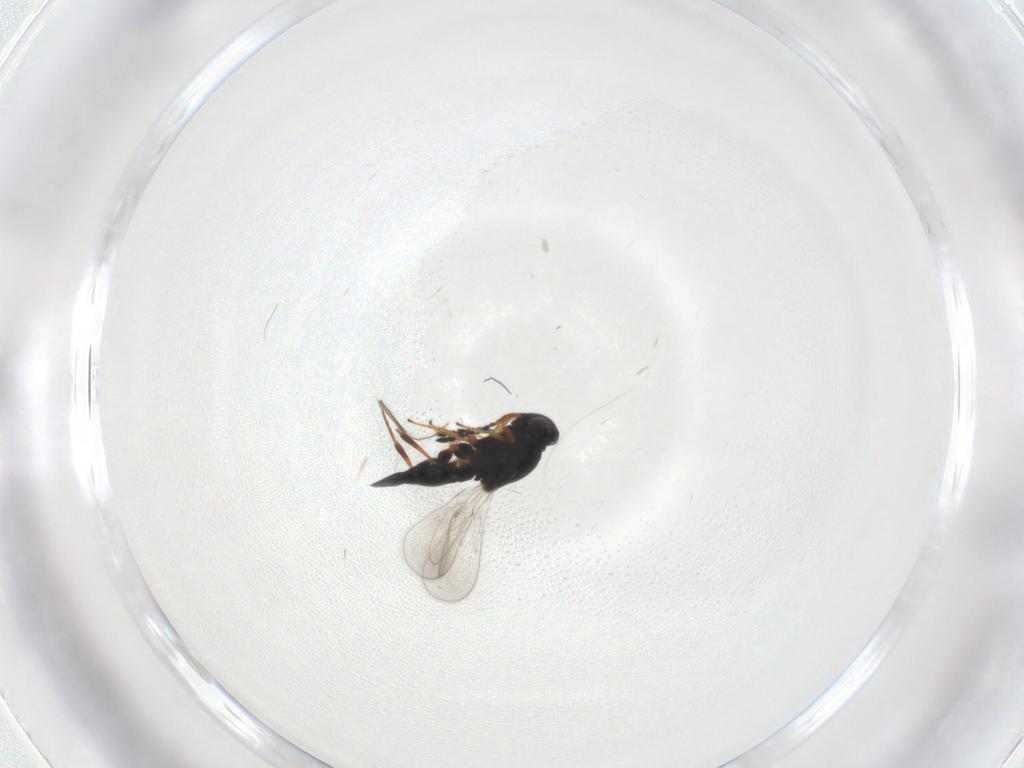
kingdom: Animalia
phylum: Arthropoda
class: Insecta
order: Hymenoptera
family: Platygastridae
